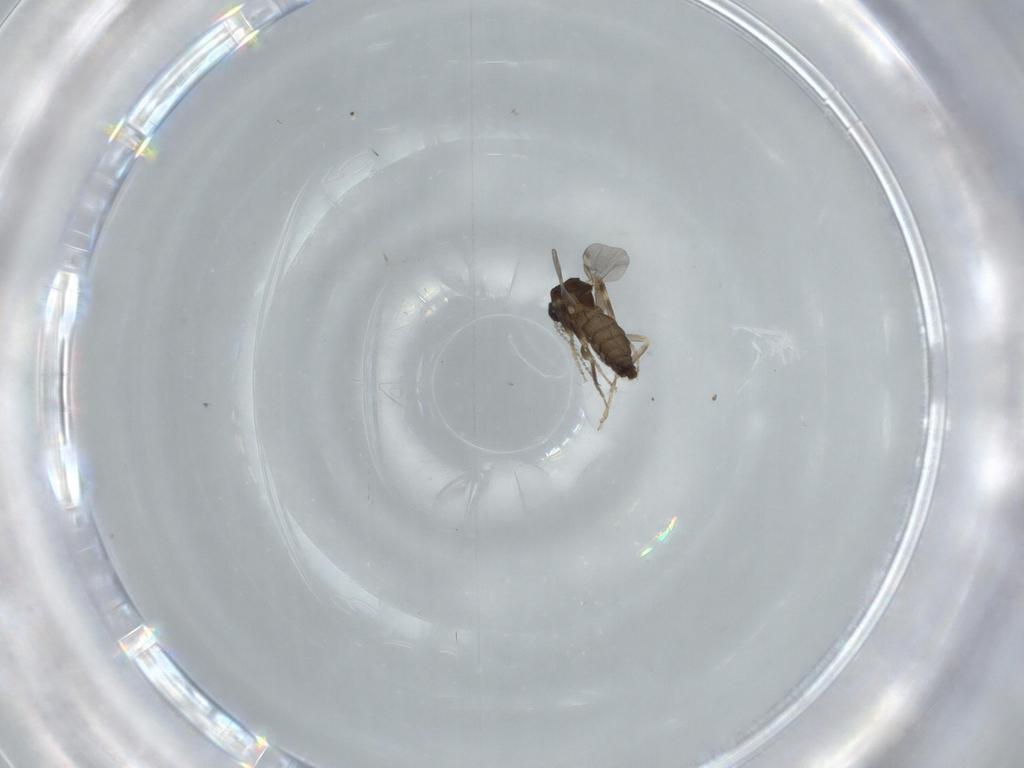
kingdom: Animalia
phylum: Arthropoda
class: Insecta
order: Diptera
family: Ceratopogonidae
